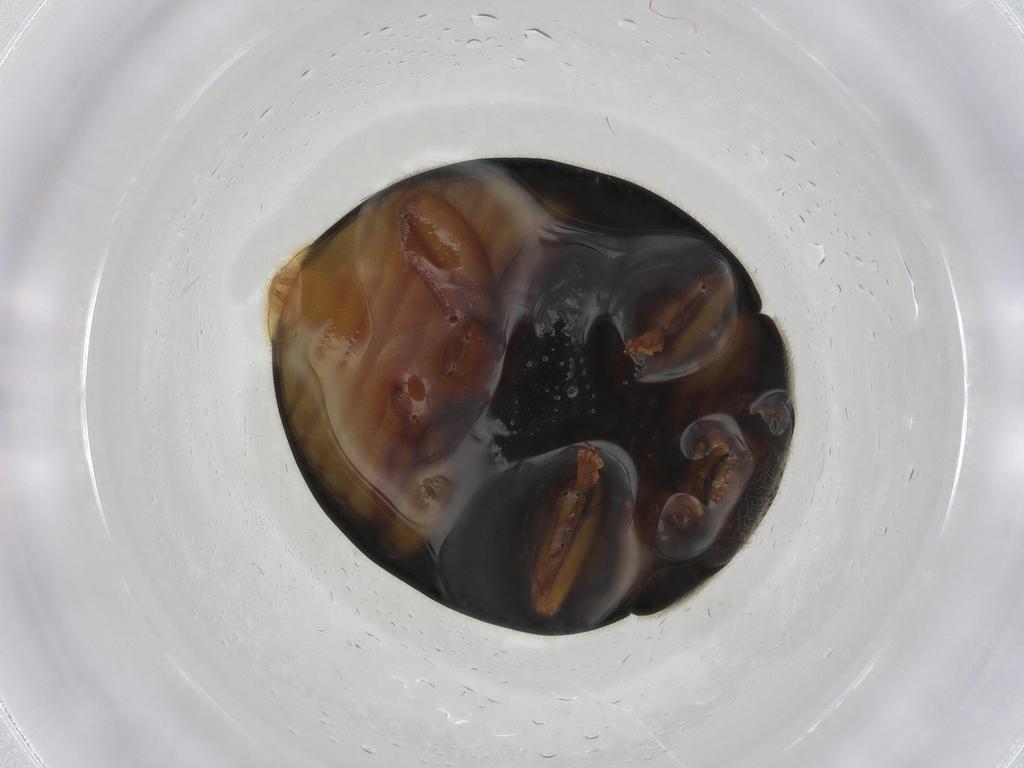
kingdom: Animalia
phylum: Arthropoda
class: Insecta
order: Coleoptera
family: Coccinellidae
